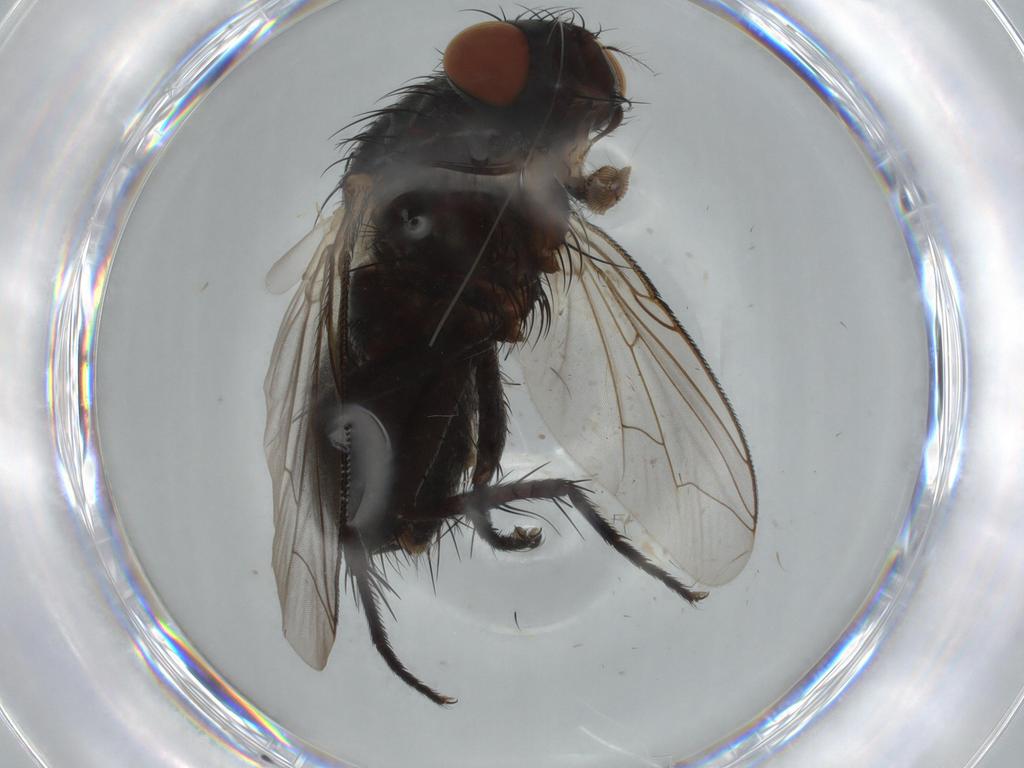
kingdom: Animalia
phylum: Arthropoda
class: Insecta
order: Diptera
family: Sarcophagidae
